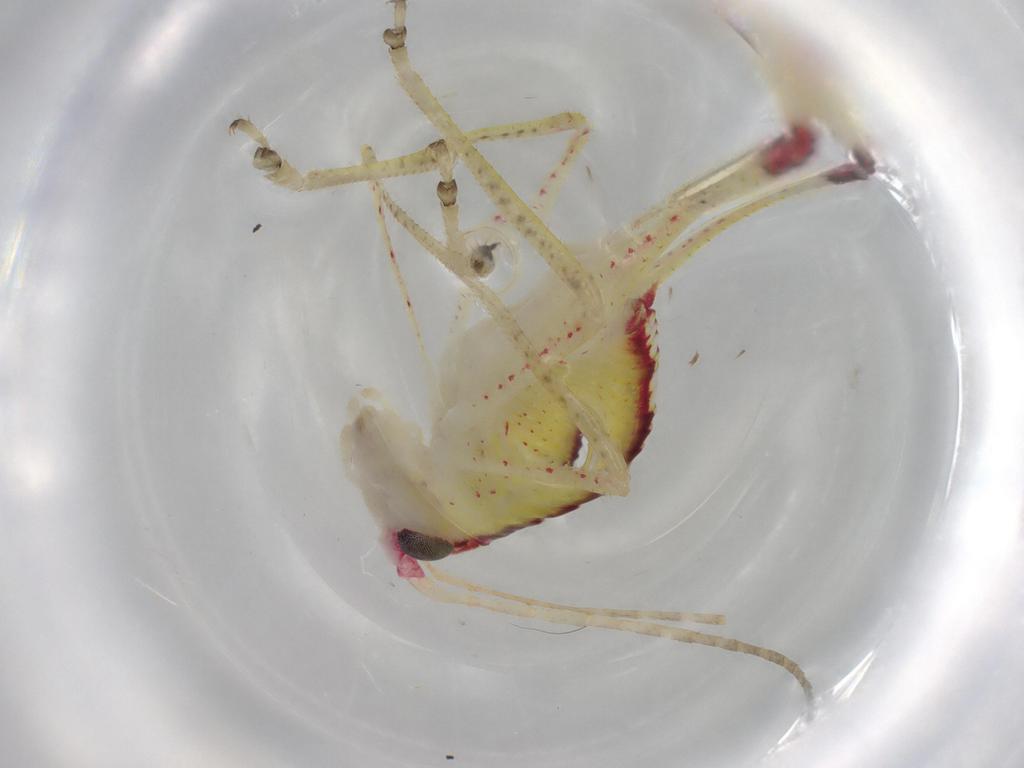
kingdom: Animalia
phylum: Arthropoda
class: Insecta
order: Orthoptera
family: Tettigoniidae
